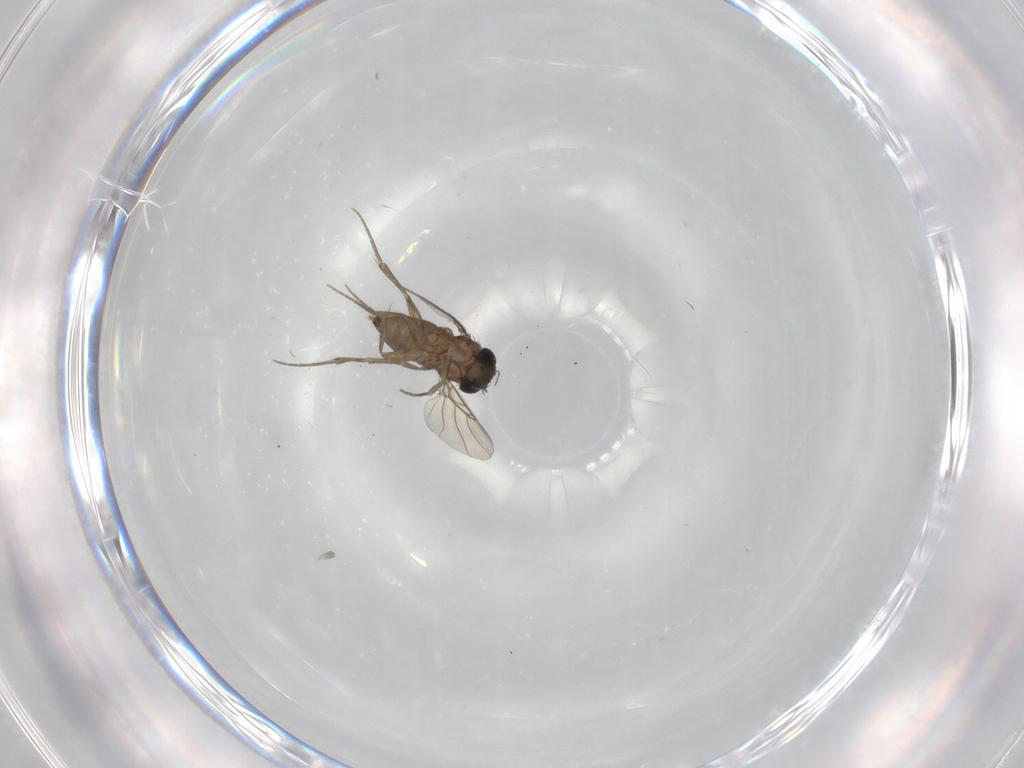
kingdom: Animalia
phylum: Arthropoda
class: Insecta
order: Diptera
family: Phoridae
